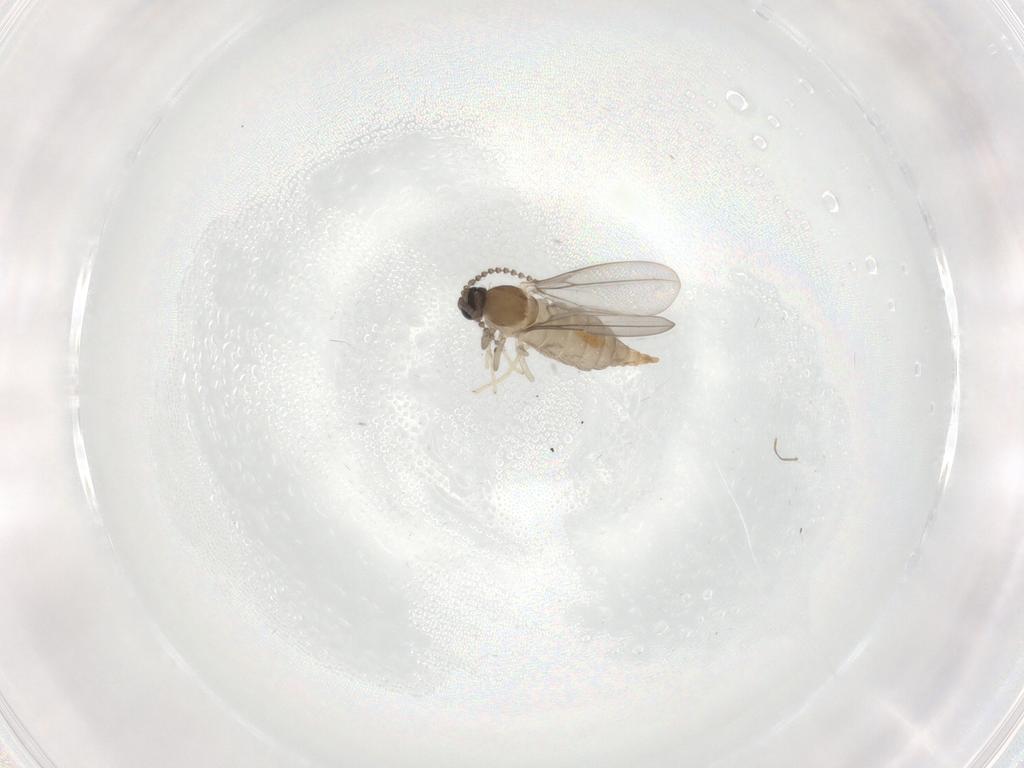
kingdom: Animalia
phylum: Arthropoda
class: Insecta
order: Diptera
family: Cecidomyiidae
